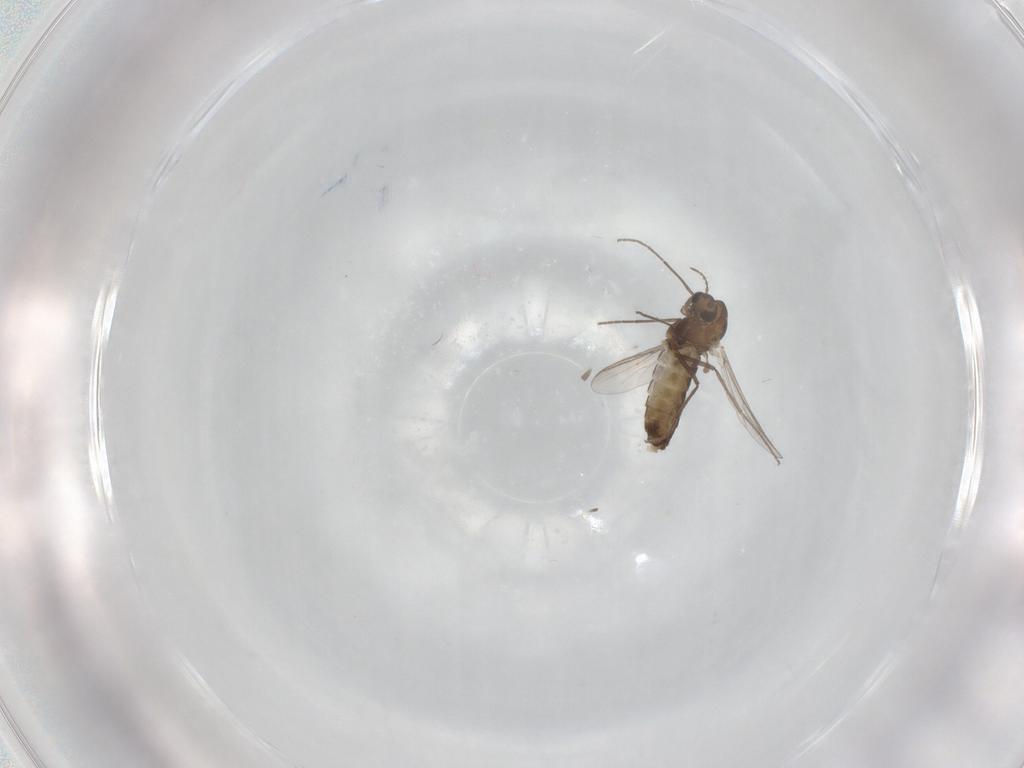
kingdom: Animalia
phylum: Arthropoda
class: Insecta
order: Diptera
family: Chironomidae
